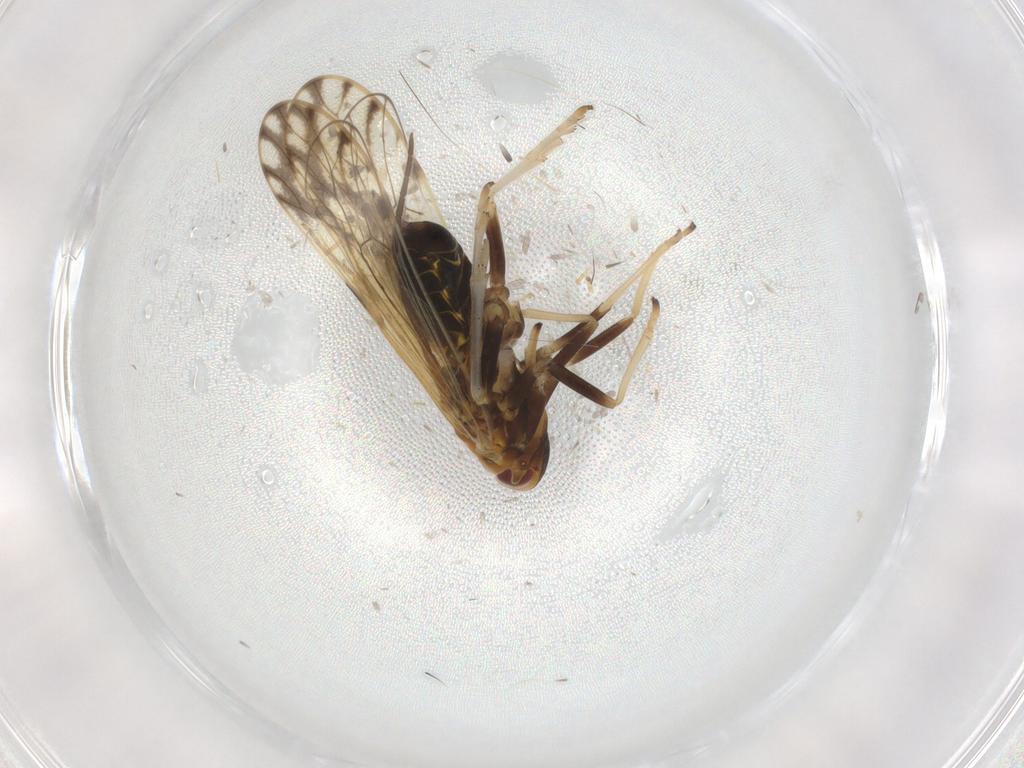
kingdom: Animalia
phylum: Arthropoda
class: Insecta
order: Hemiptera
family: Delphacidae
